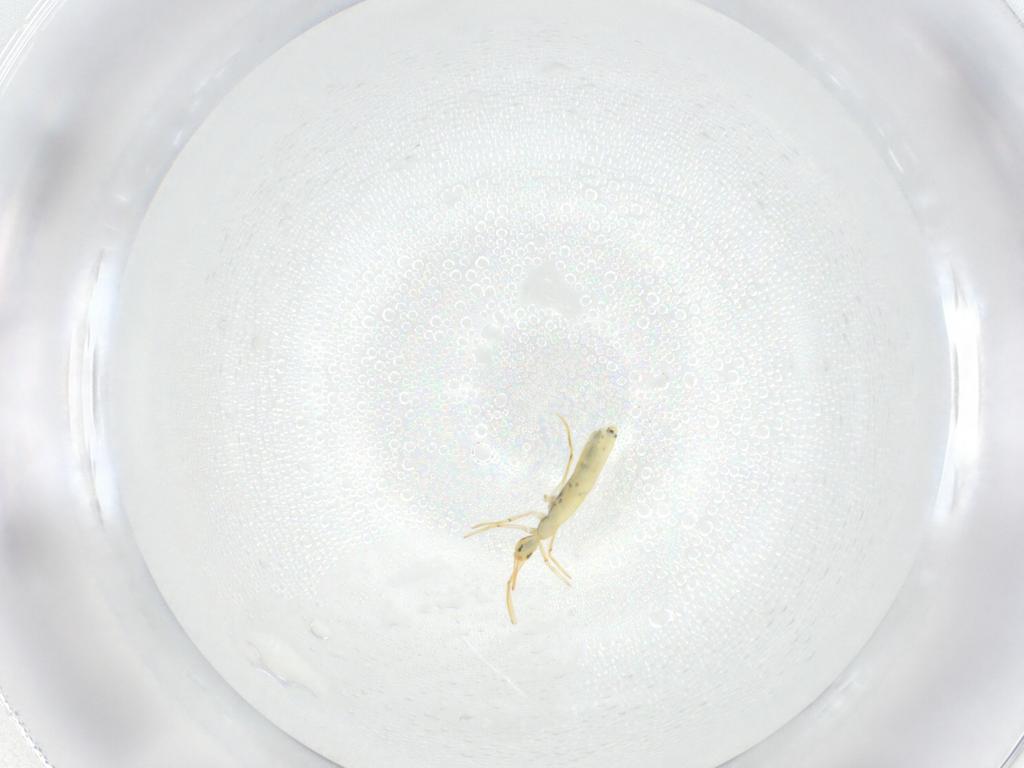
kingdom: Animalia
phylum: Arthropoda
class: Collembola
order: Entomobryomorpha
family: Entomobryidae
